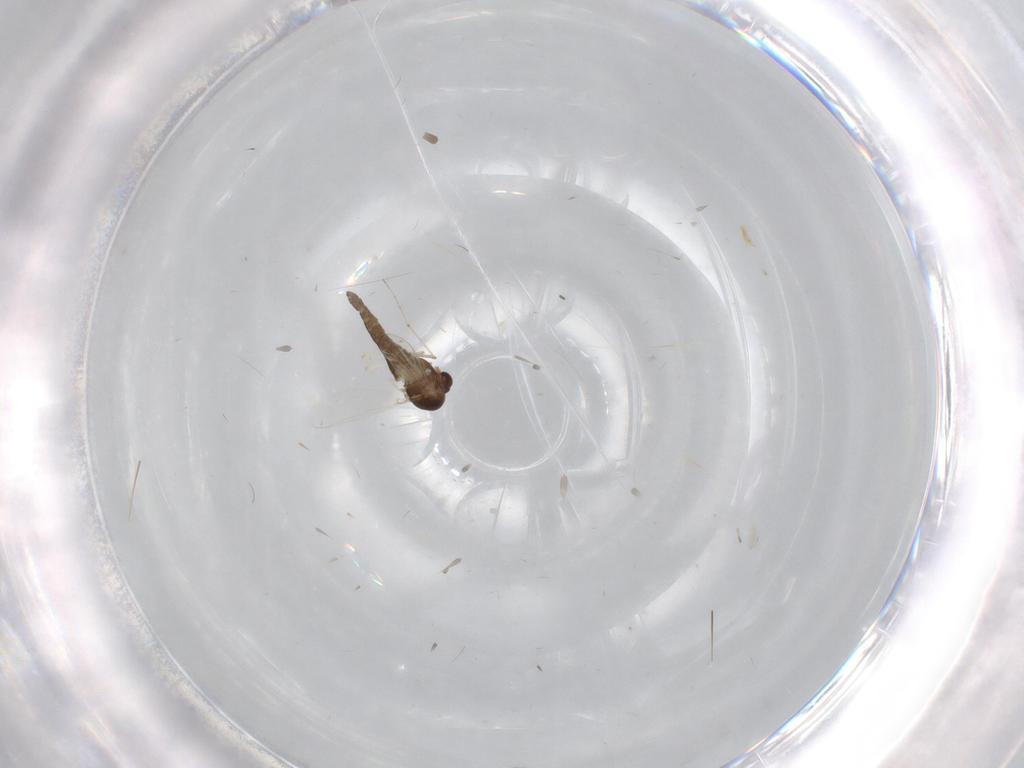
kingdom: Animalia
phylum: Arthropoda
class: Insecta
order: Diptera
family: Chironomidae
